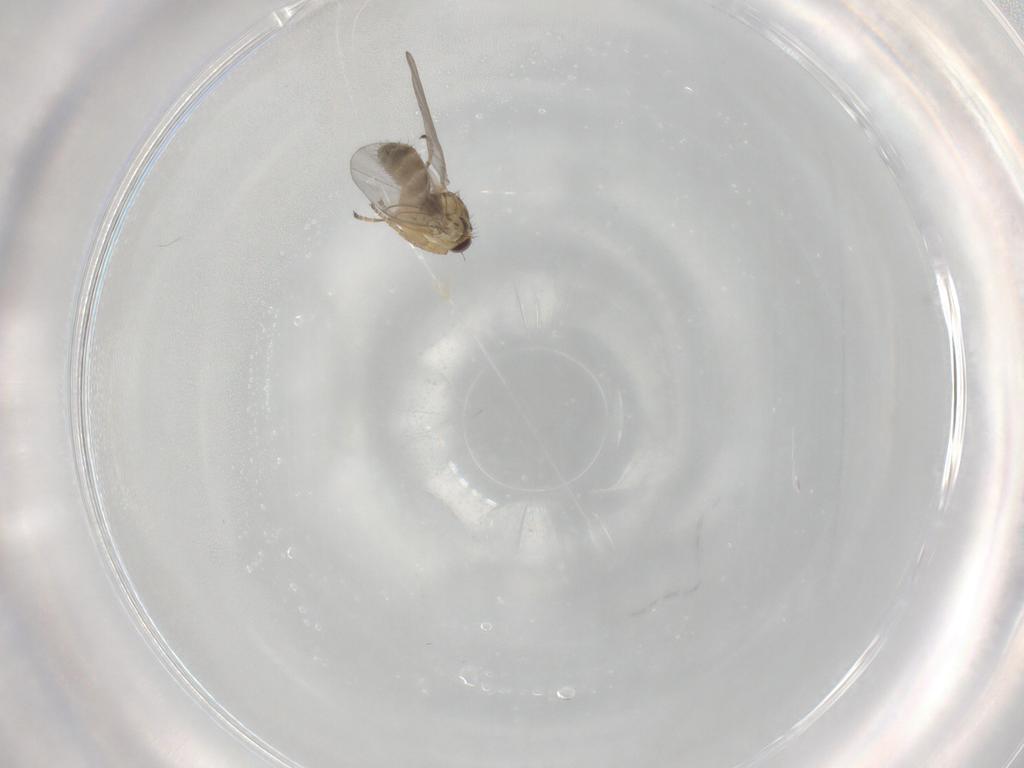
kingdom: Animalia
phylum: Arthropoda
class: Insecta
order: Diptera
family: Agromyzidae
